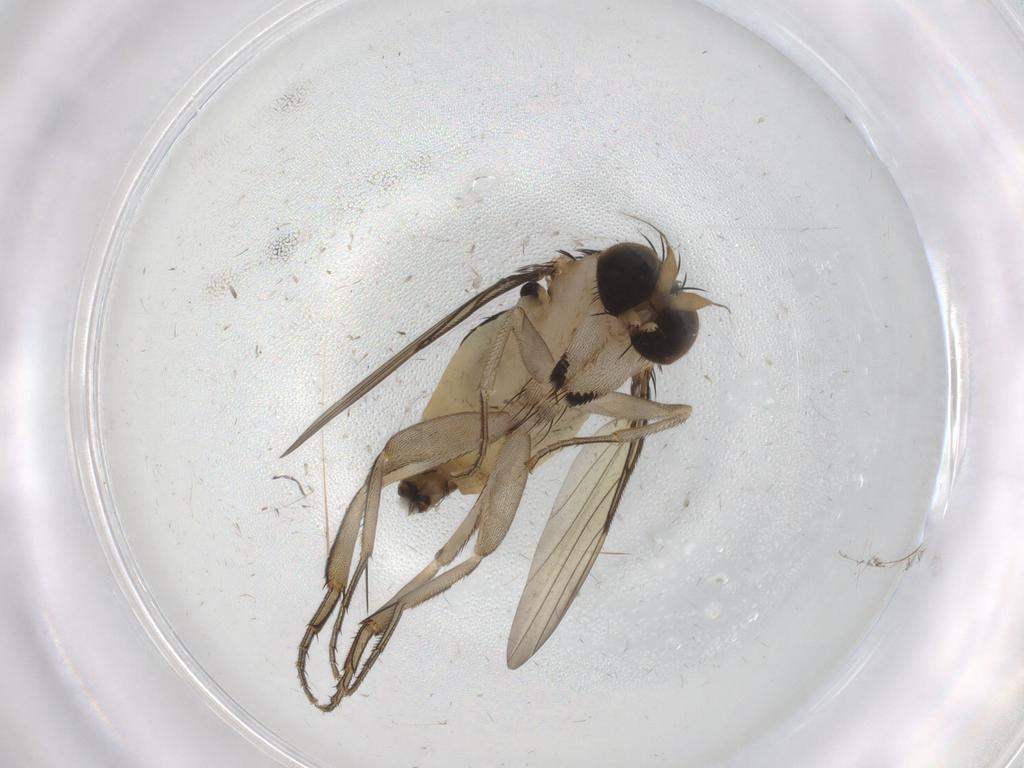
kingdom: Animalia
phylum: Arthropoda
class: Insecta
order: Diptera
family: Phoridae
